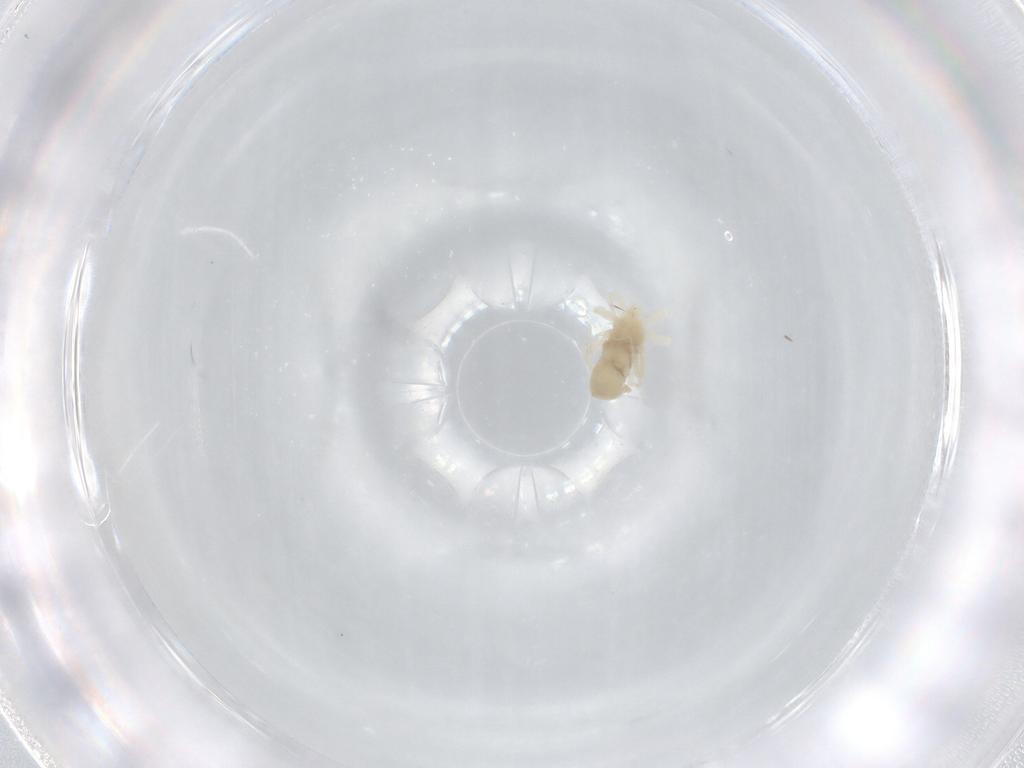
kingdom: Animalia
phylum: Arthropoda
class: Arachnida
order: Trombidiformes
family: Anystidae
